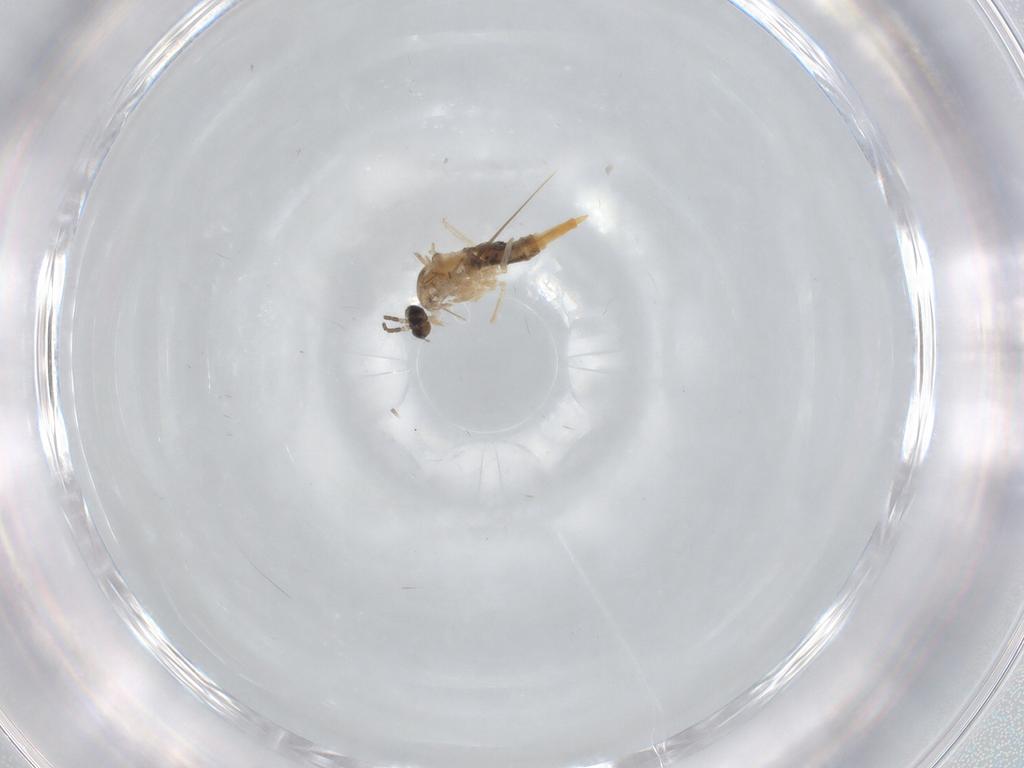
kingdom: Animalia
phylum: Arthropoda
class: Insecta
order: Diptera
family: Cecidomyiidae
